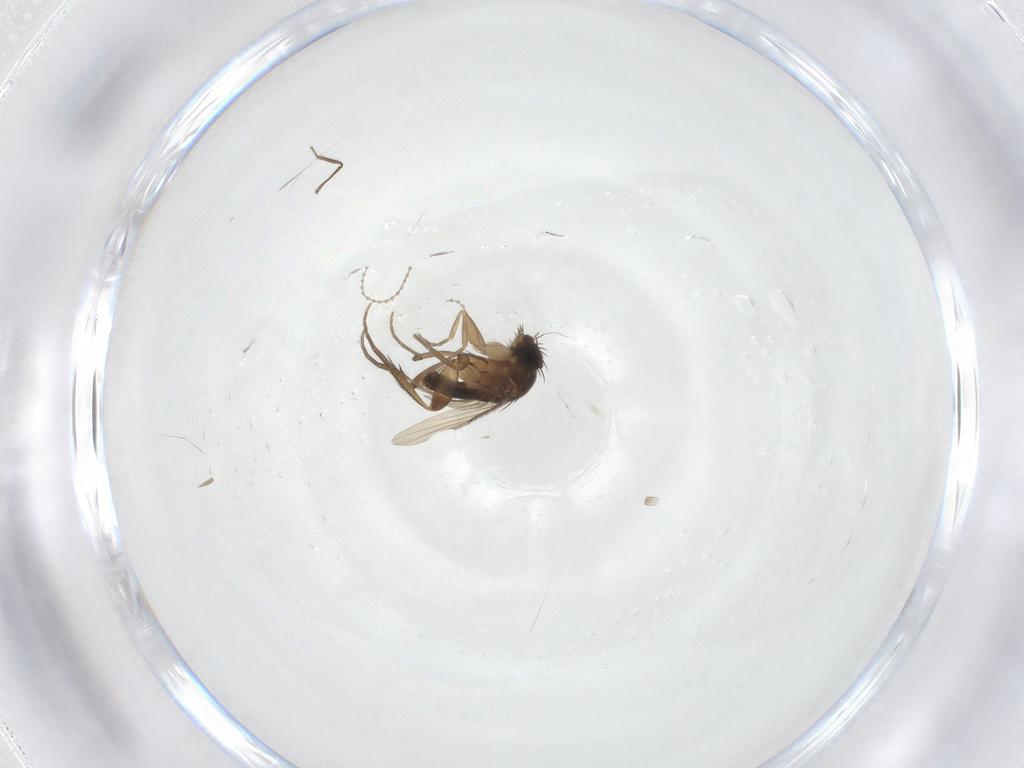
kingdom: Animalia
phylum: Arthropoda
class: Insecta
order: Diptera
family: Phoridae
